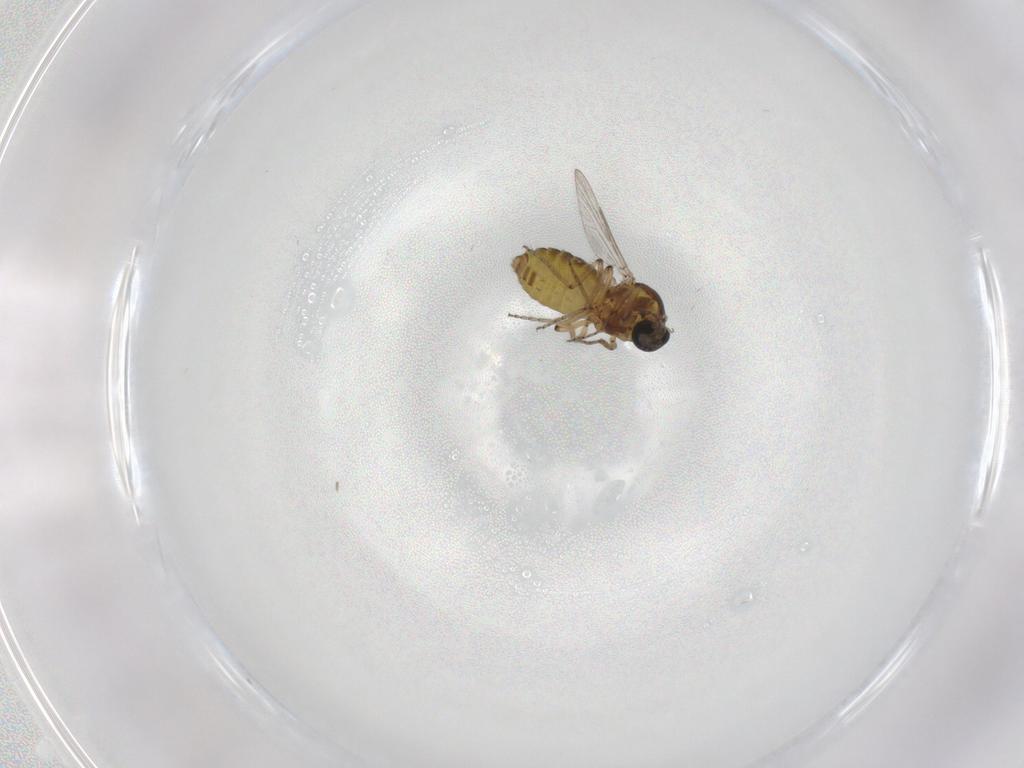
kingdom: Animalia
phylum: Arthropoda
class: Insecta
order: Diptera
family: Ceratopogonidae
